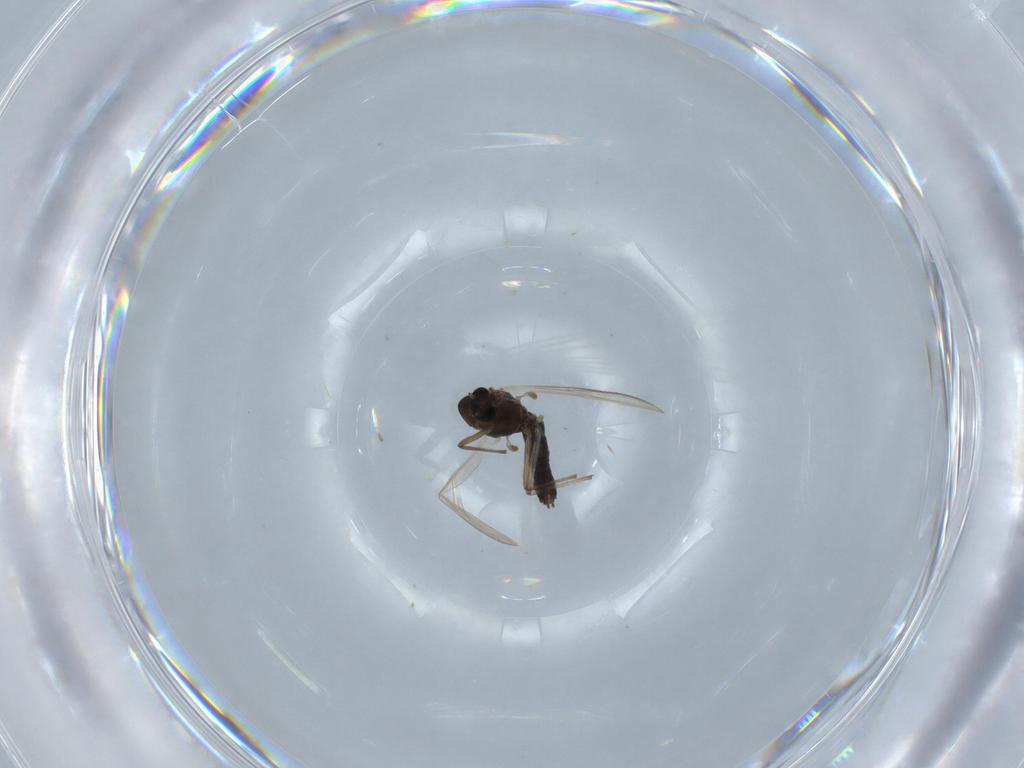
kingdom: Animalia
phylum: Arthropoda
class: Insecta
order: Diptera
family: Chironomidae
